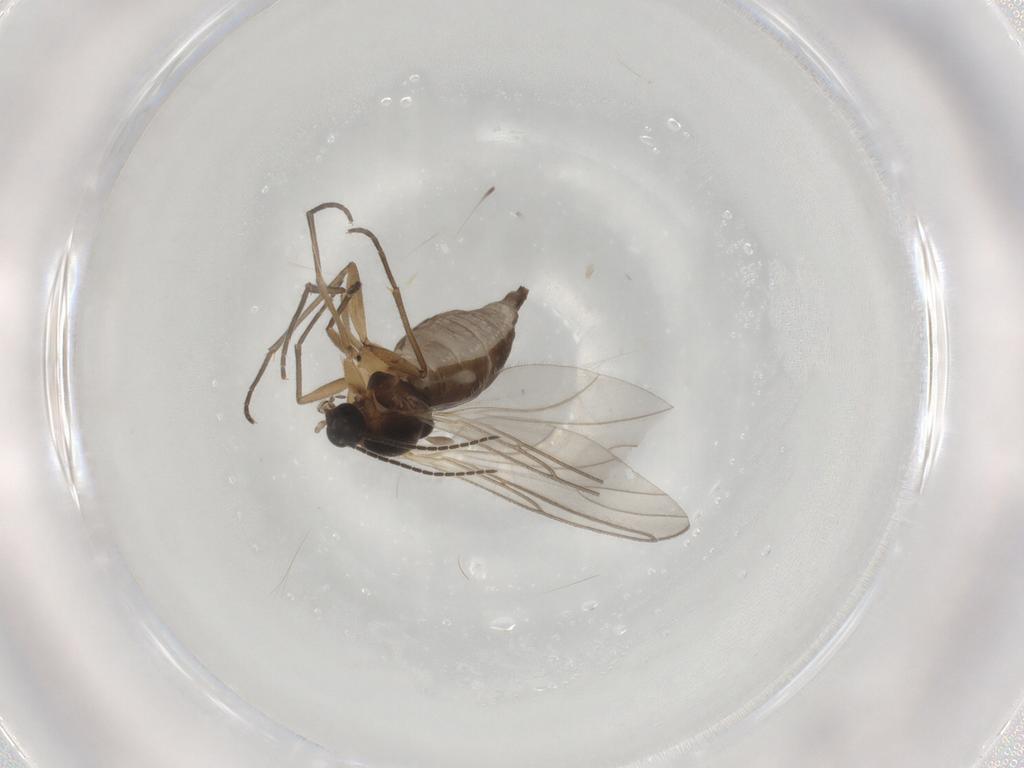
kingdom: Animalia
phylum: Arthropoda
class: Insecta
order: Diptera
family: Sciaridae
